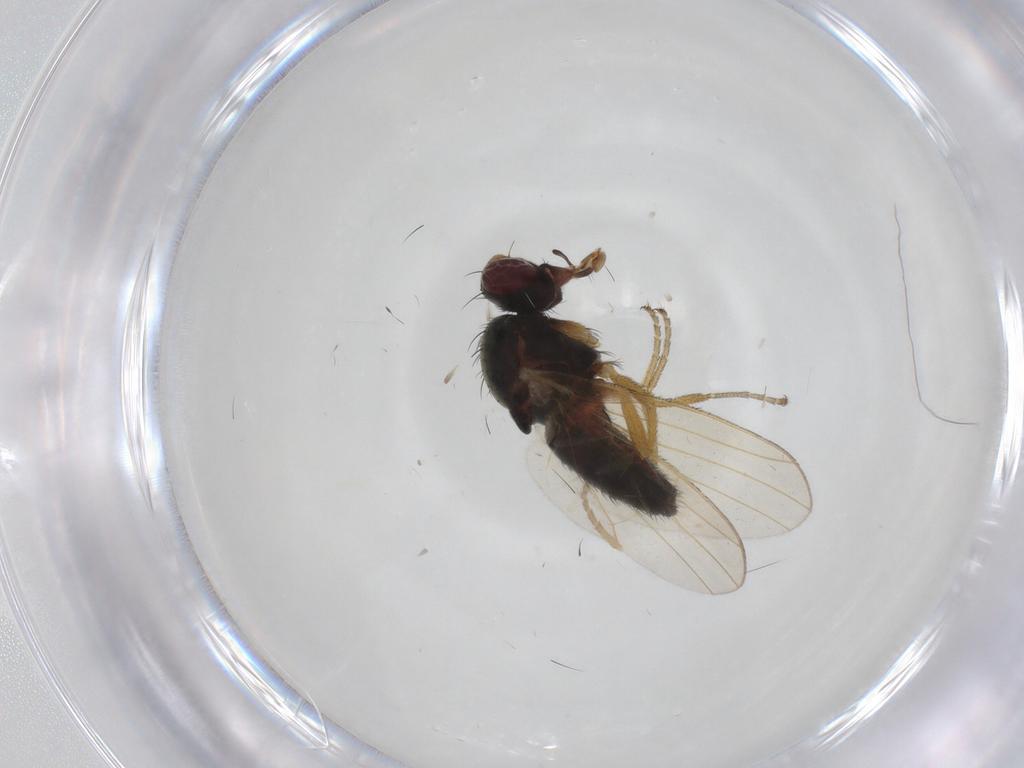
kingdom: Animalia
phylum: Arthropoda
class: Insecta
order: Diptera
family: Heleomyzidae
